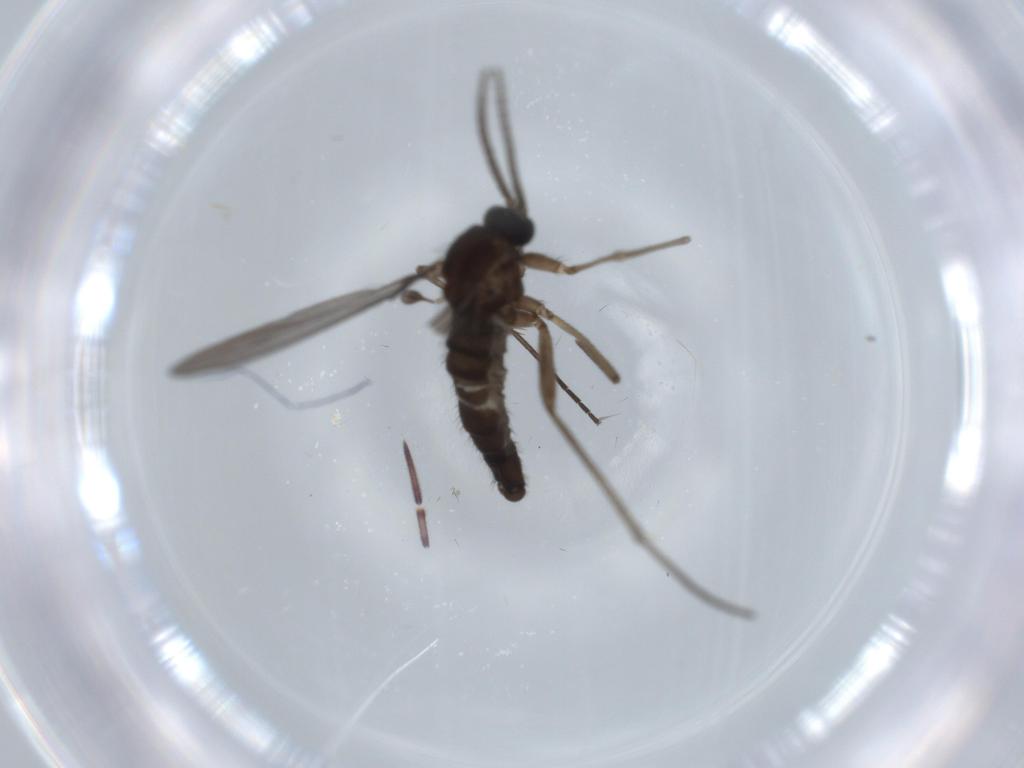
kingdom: Animalia
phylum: Arthropoda
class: Insecta
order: Diptera
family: Sciaridae
